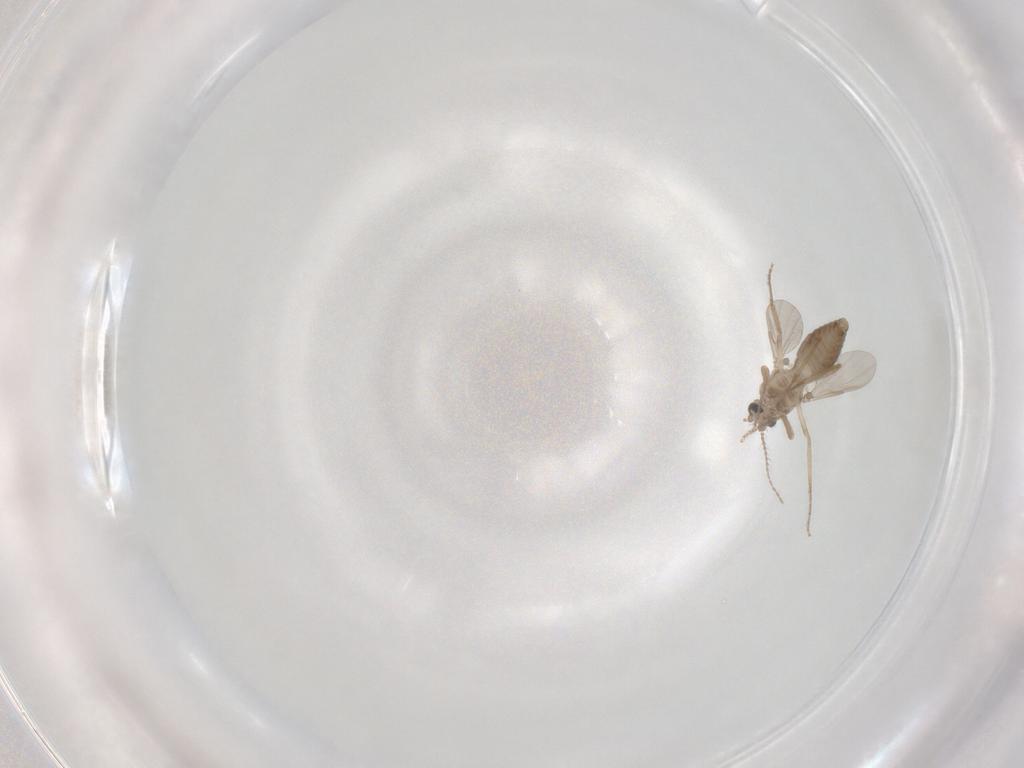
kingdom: Animalia
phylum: Arthropoda
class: Insecta
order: Diptera
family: Ceratopogonidae
